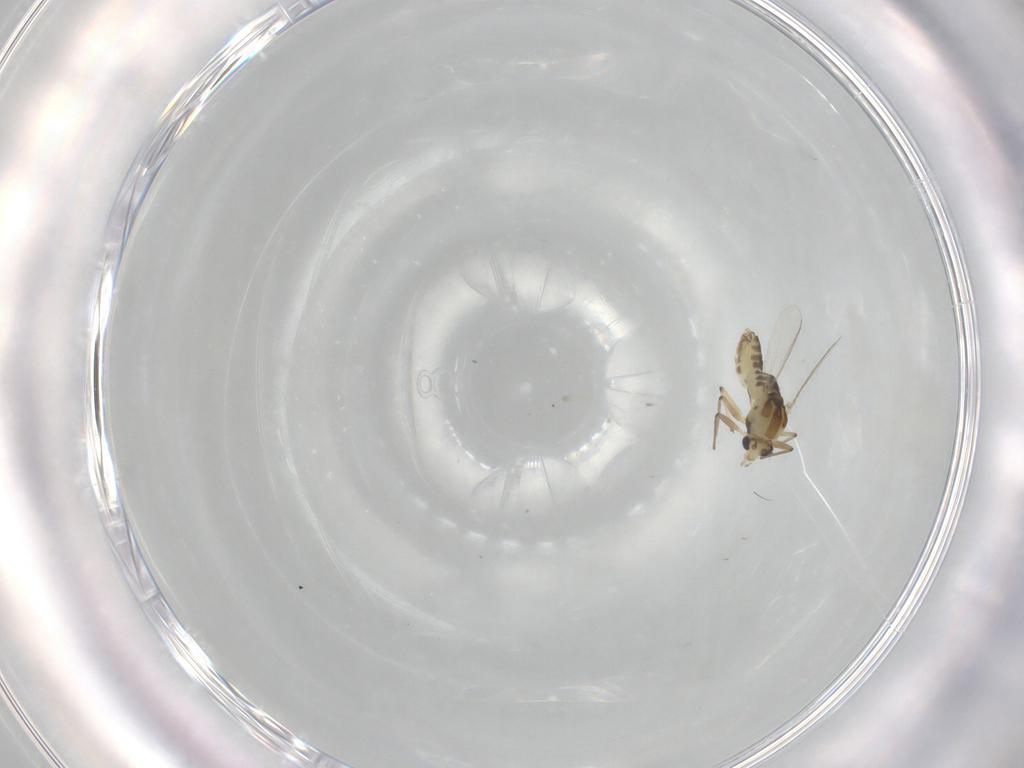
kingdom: Animalia
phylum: Arthropoda
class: Insecta
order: Diptera
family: Chironomidae
